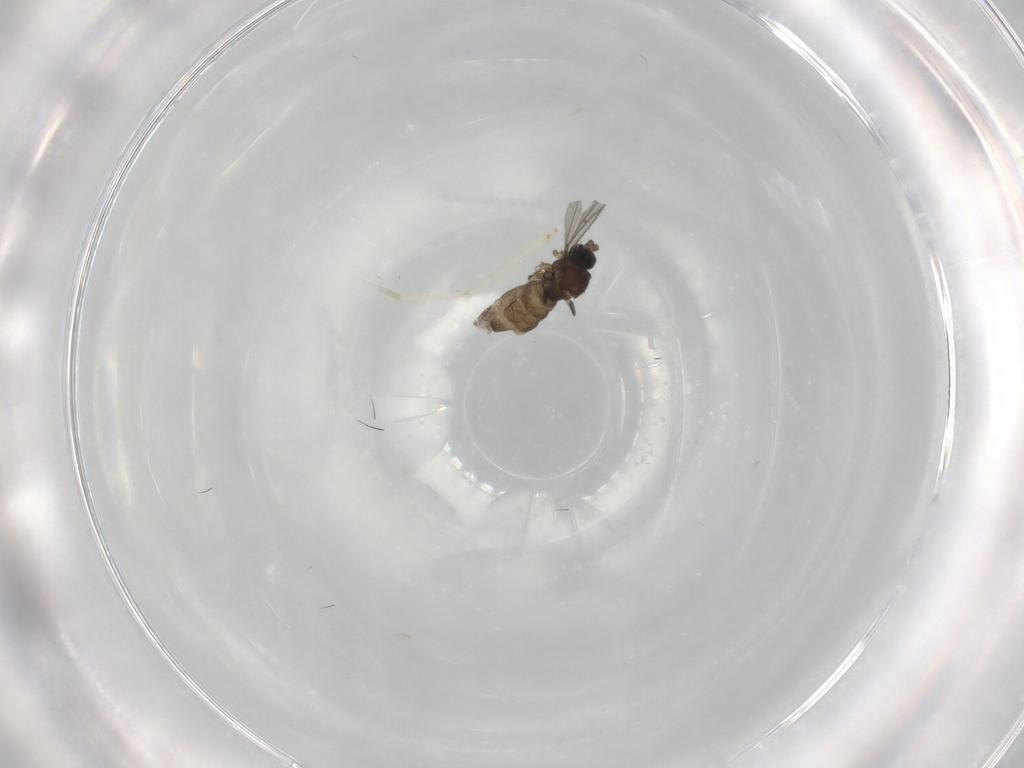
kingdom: Animalia
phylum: Arthropoda
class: Insecta
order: Diptera
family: Sciaridae
